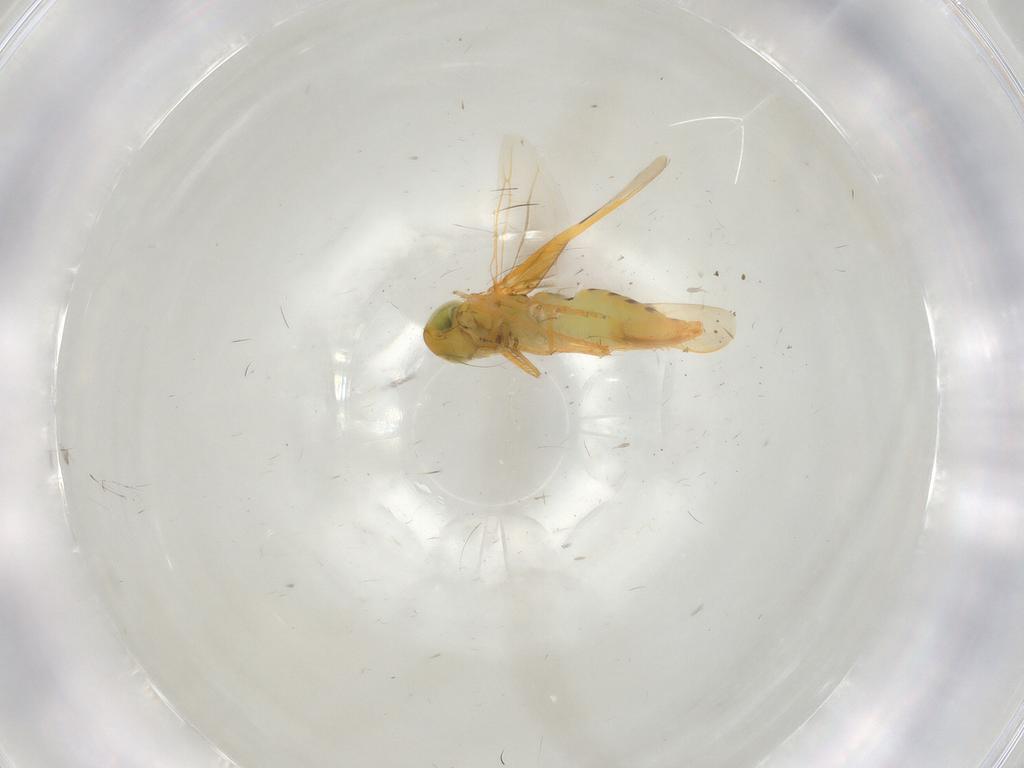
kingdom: Animalia
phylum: Arthropoda
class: Insecta
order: Hemiptera
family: Cicadellidae
